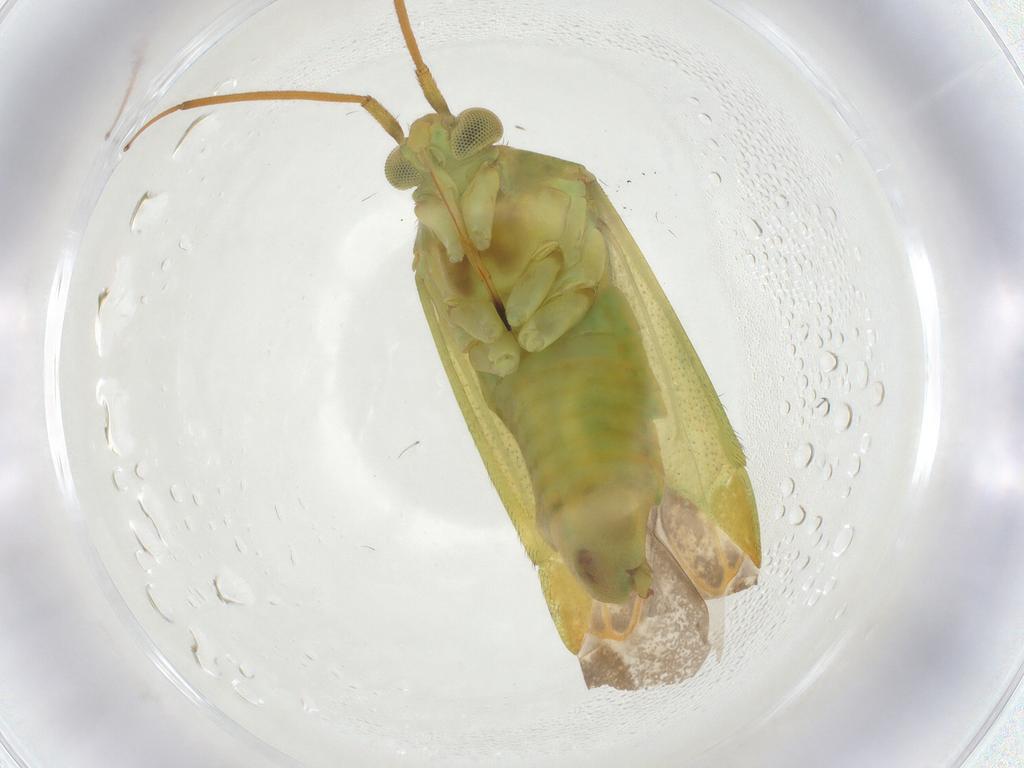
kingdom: Animalia
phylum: Arthropoda
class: Insecta
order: Hemiptera
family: Miridae
